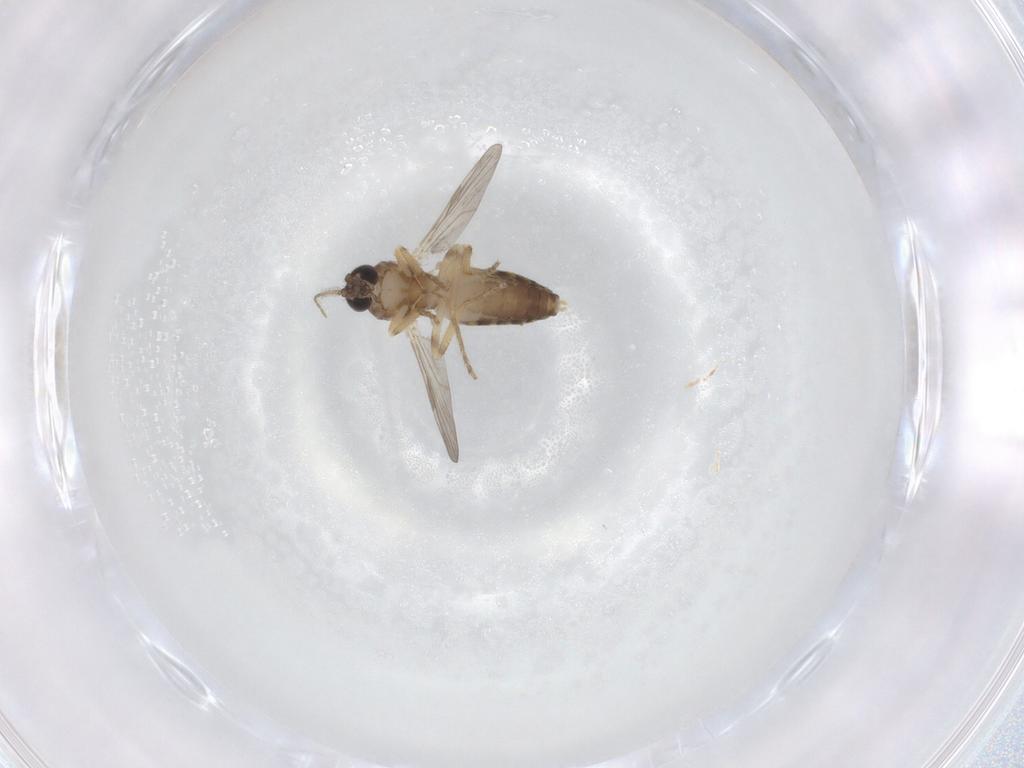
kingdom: Animalia
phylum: Arthropoda
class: Insecta
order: Diptera
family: Ceratopogonidae
